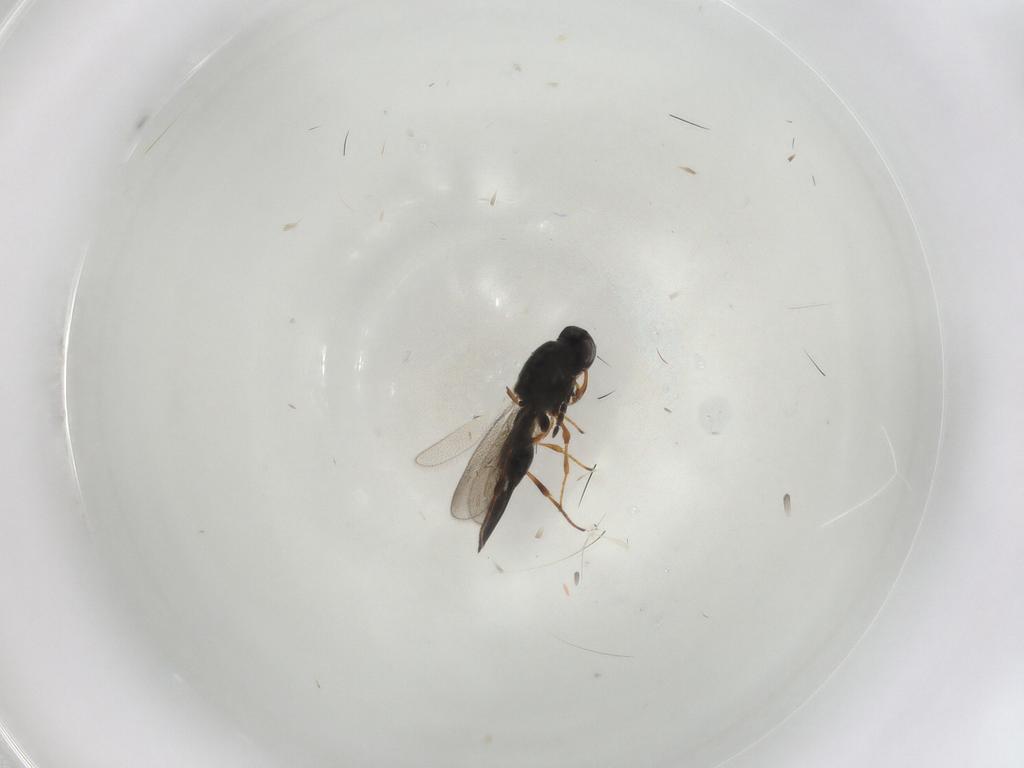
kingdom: Animalia
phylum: Arthropoda
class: Insecta
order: Hymenoptera
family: Platygastridae
